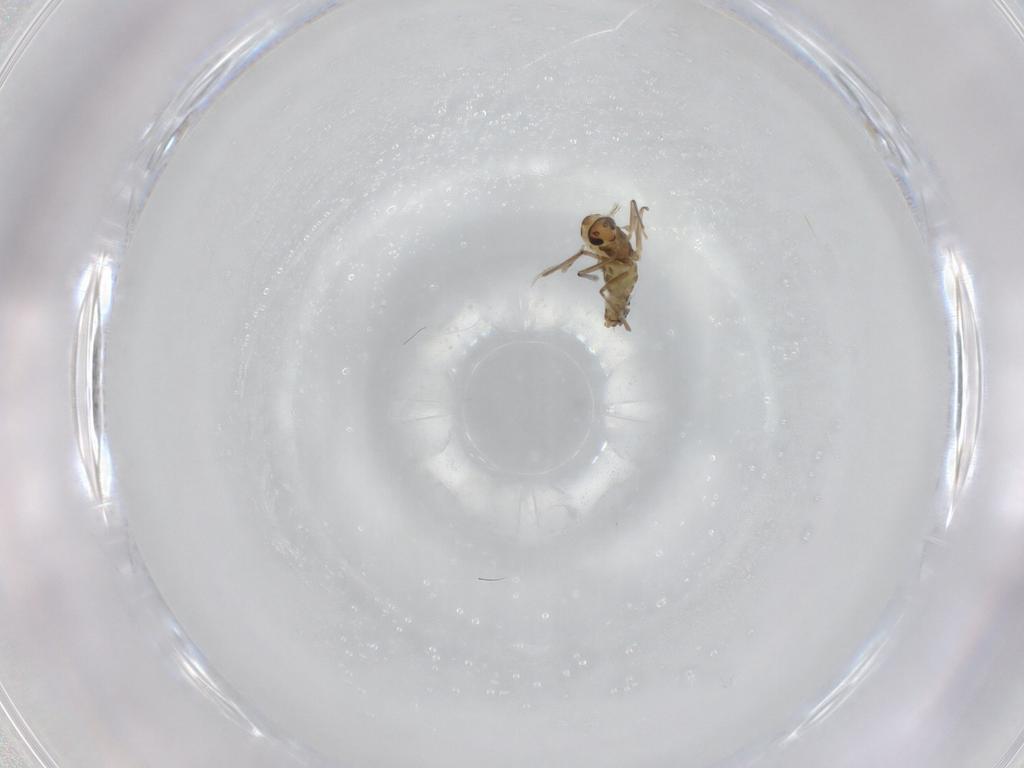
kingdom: Animalia
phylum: Arthropoda
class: Insecta
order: Diptera
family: Chironomidae
